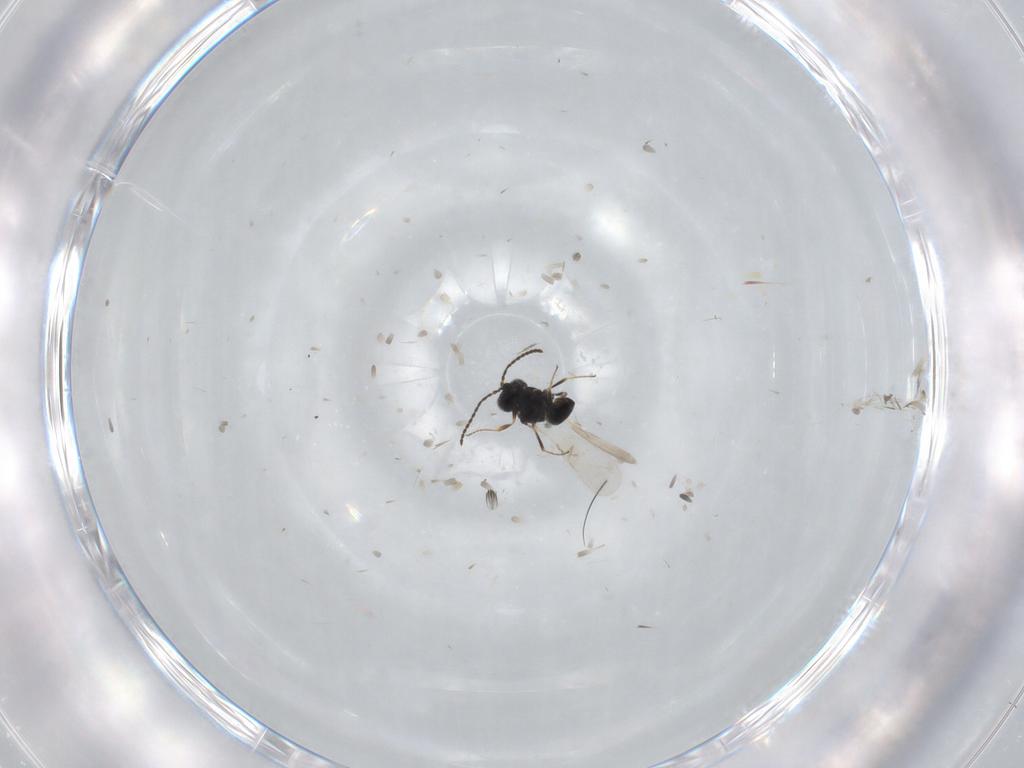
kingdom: Animalia
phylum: Arthropoda
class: Insecta
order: Hymenoptera
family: Scelionidae
